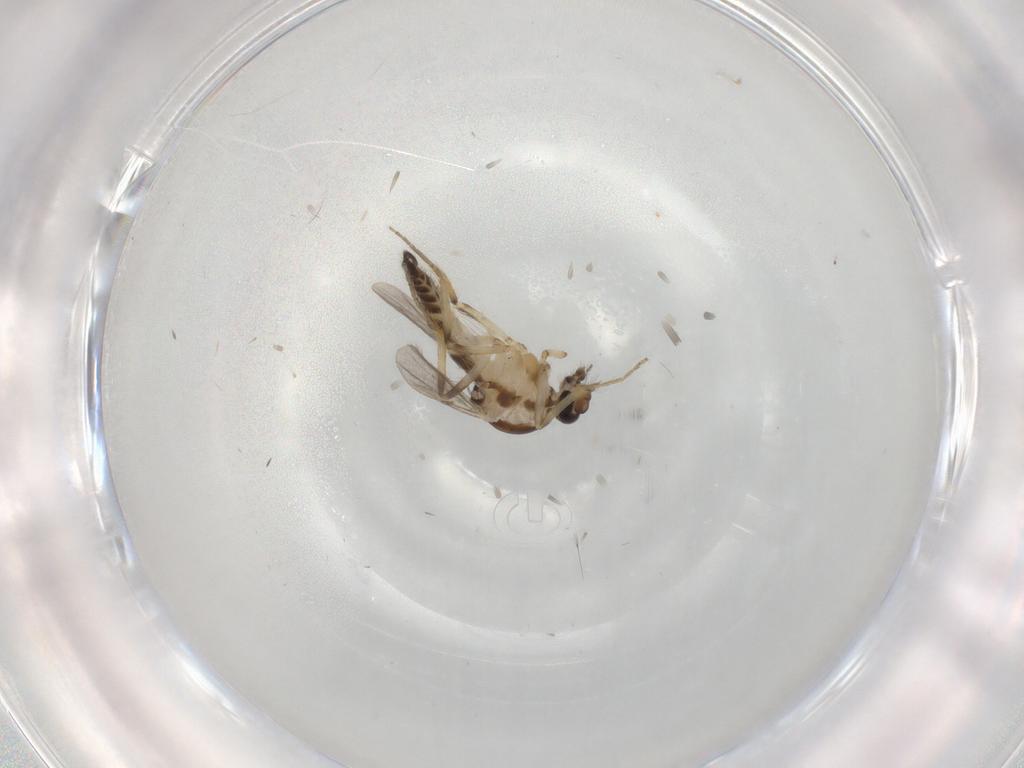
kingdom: Animalia
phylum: Arthropoda
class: Insecta
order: Diptera
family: Ceratopogonidae
